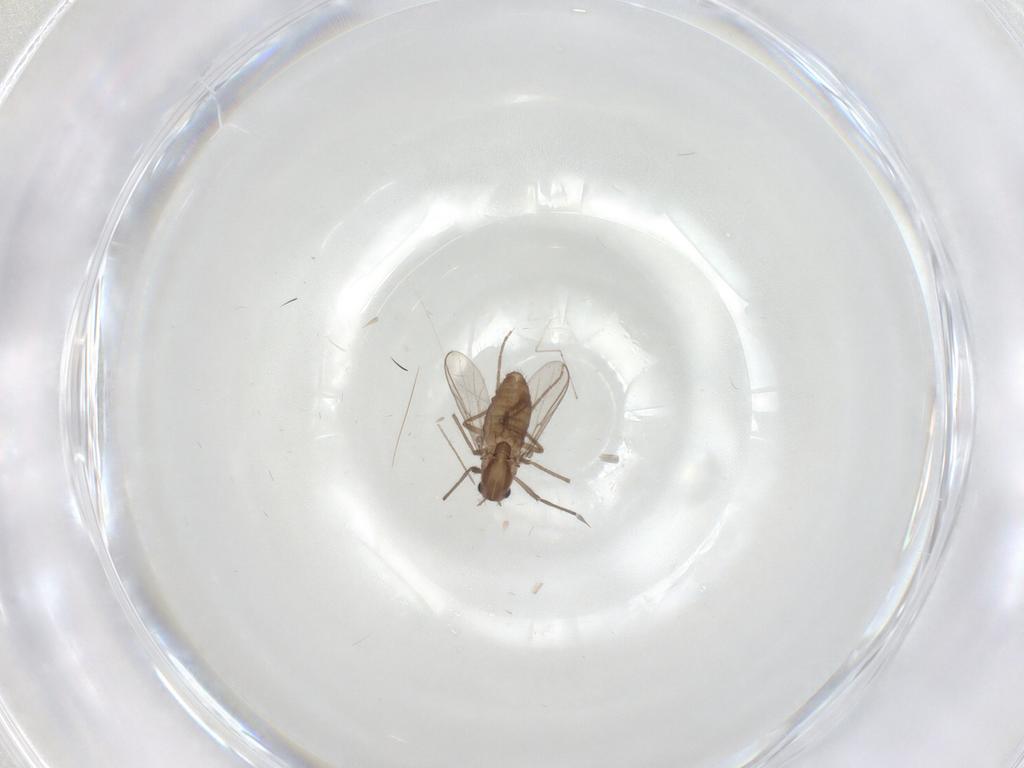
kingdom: Animalia
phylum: Arthropoda
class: Insecta
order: Diptera
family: Chironomidae
